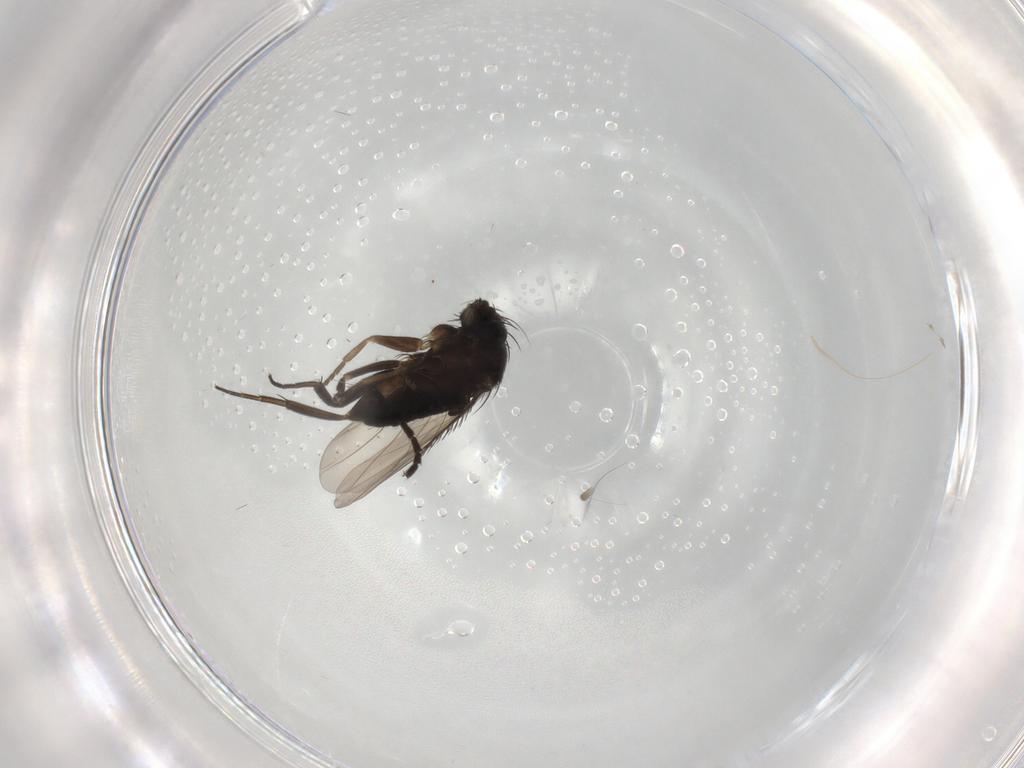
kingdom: Animalia
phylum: Arthropoda
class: Insecta
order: Diptera
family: Phoridae
